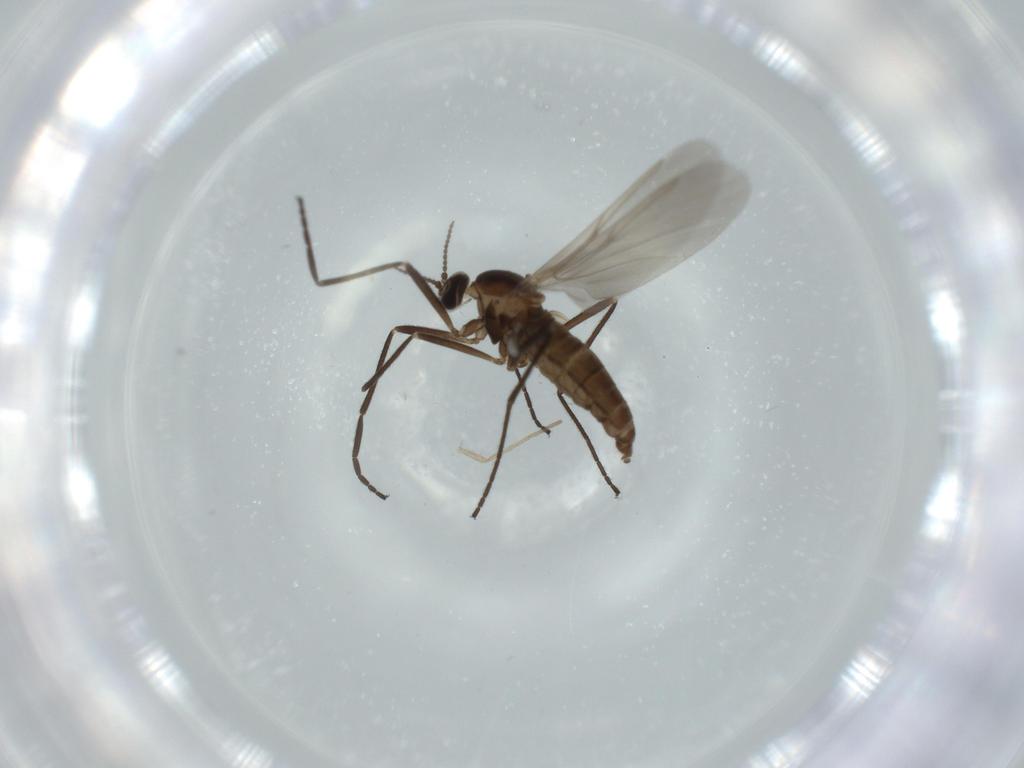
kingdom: Animalia
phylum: Arthropoda
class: Insecta
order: Diptera
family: Cecidomyiidae
